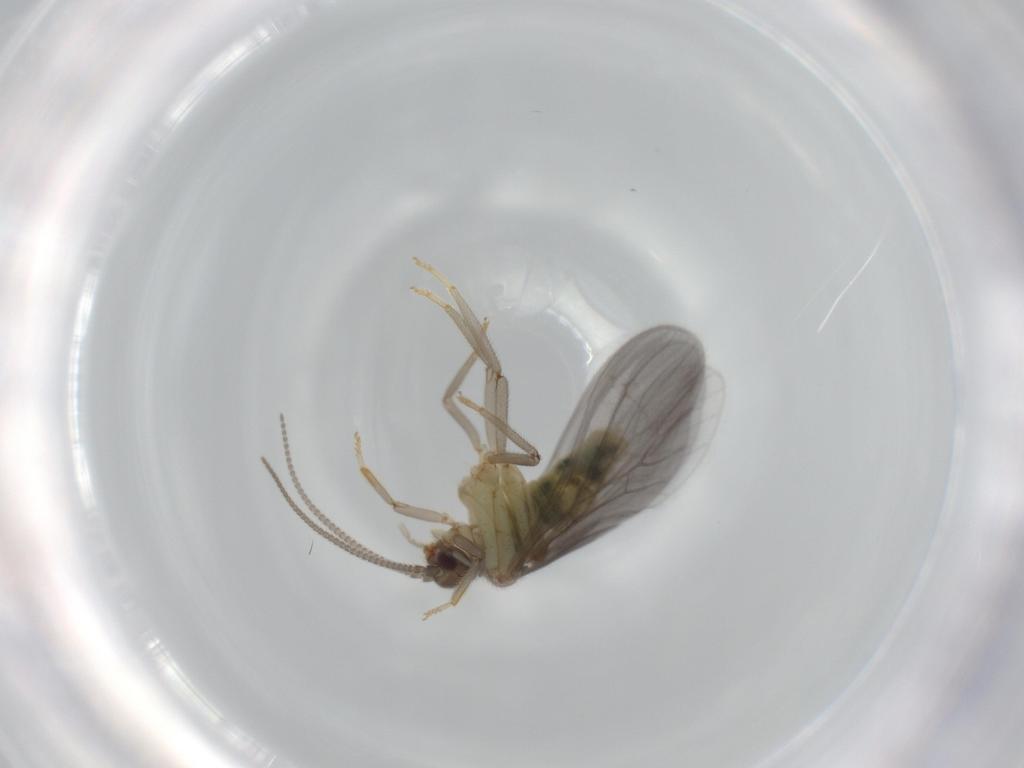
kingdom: Animalia
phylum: Arthropoda
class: Insecta
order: Neuroptera
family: Coniopterygidae
